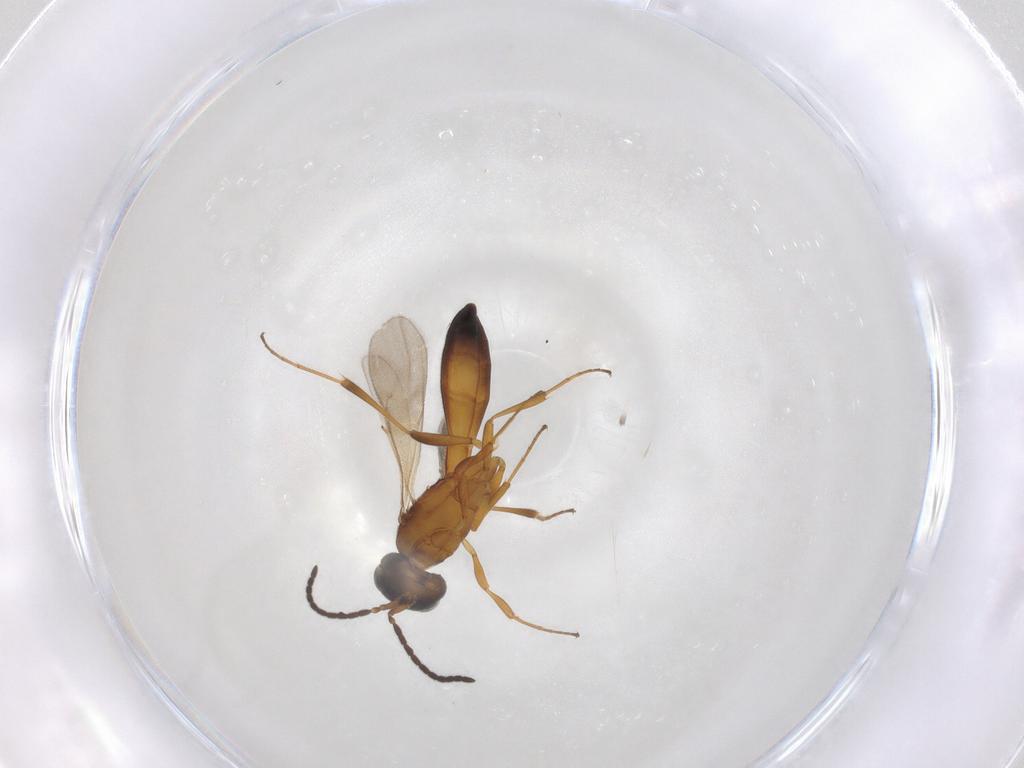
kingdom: Animalia
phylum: Arthropoda
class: Insecta
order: Hymenoptera
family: Scelionidae
